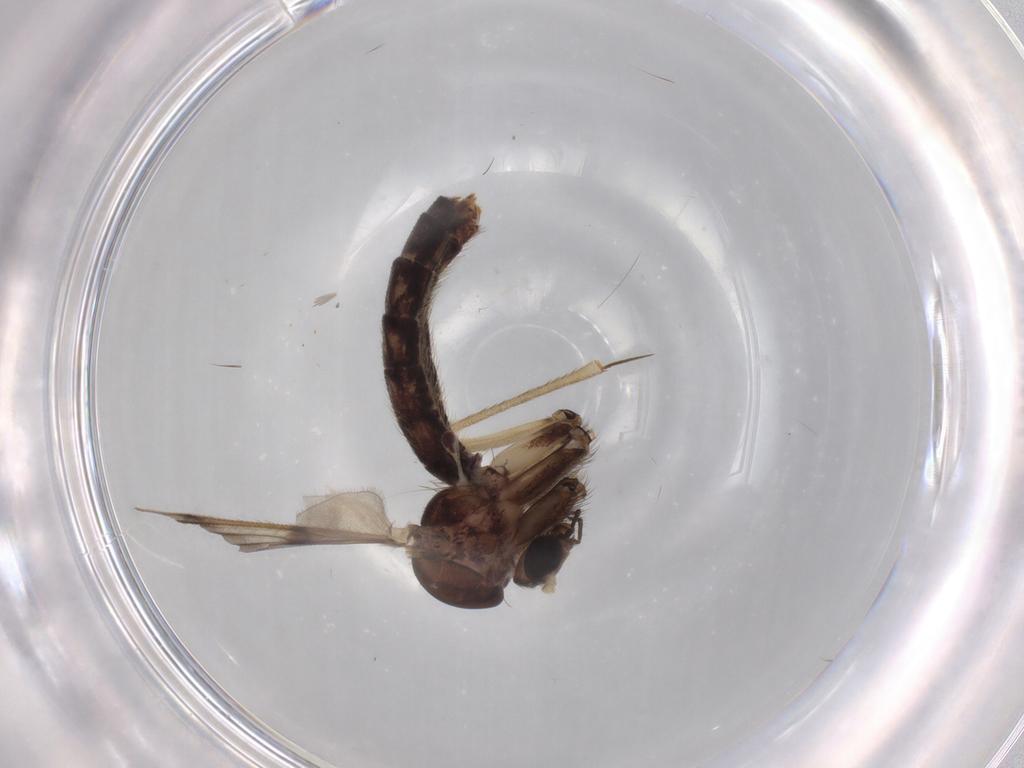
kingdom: Animalia
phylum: Arthropoda
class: Insecta
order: Diptera
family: Mycetophilidae
